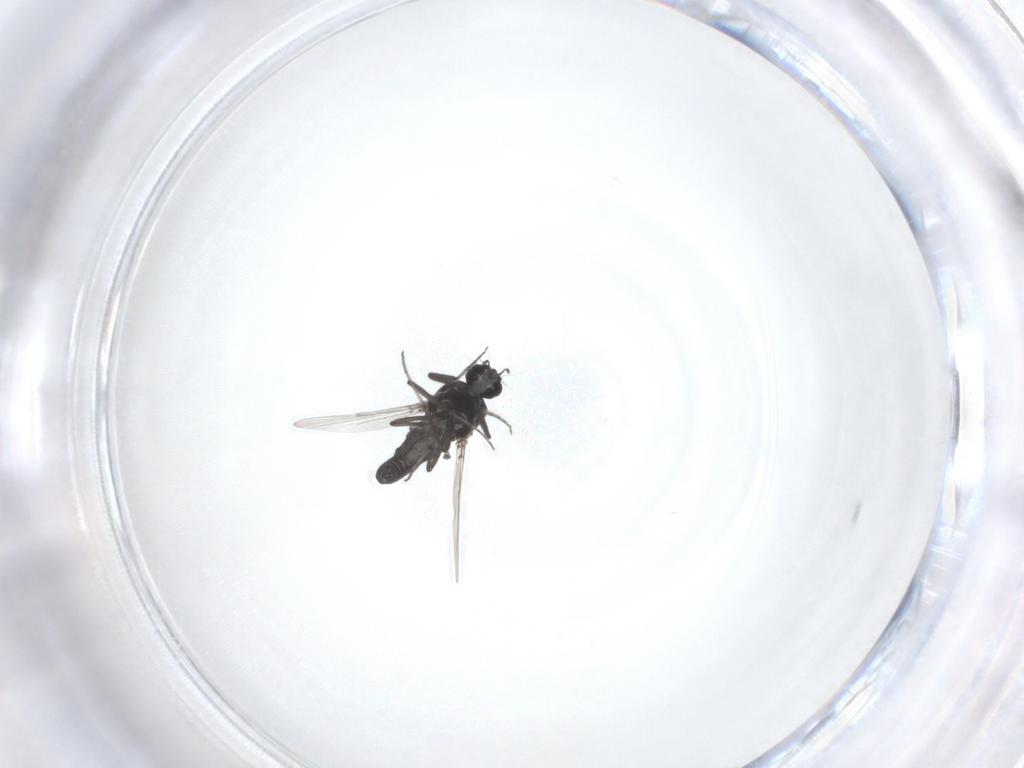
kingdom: Animalia
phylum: Arthropoda
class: Insecta
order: Diptera
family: Ceratopogonidae
